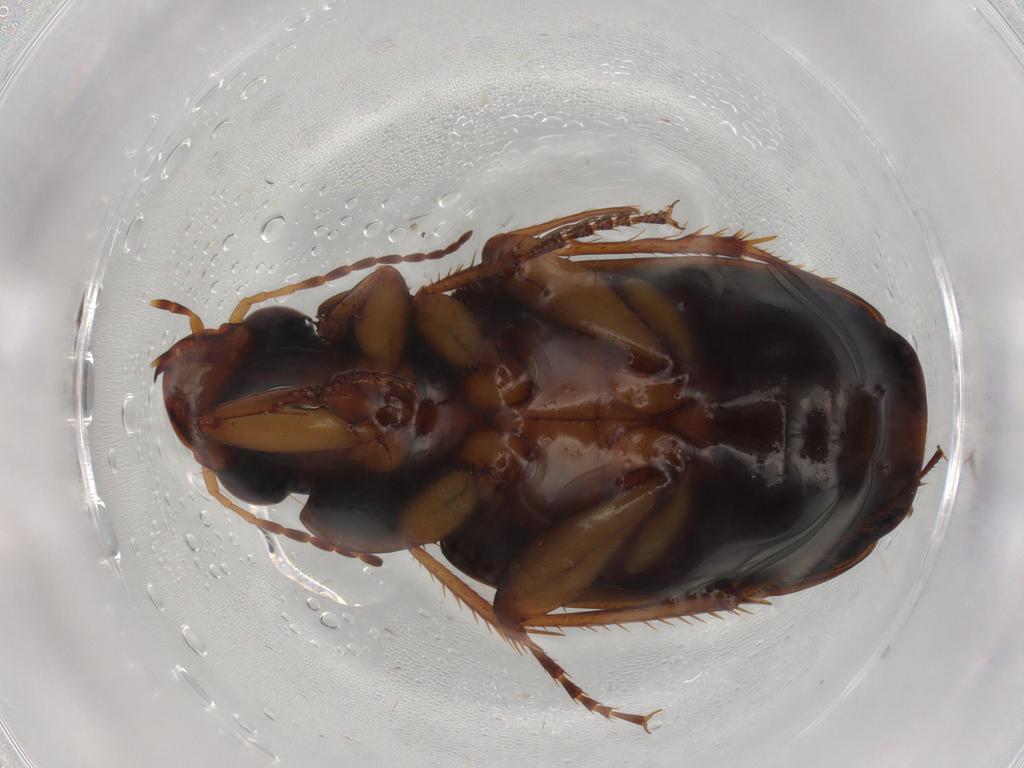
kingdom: Animalia
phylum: Arthropoda
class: Insecta
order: Coleoptera
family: Carabidae
